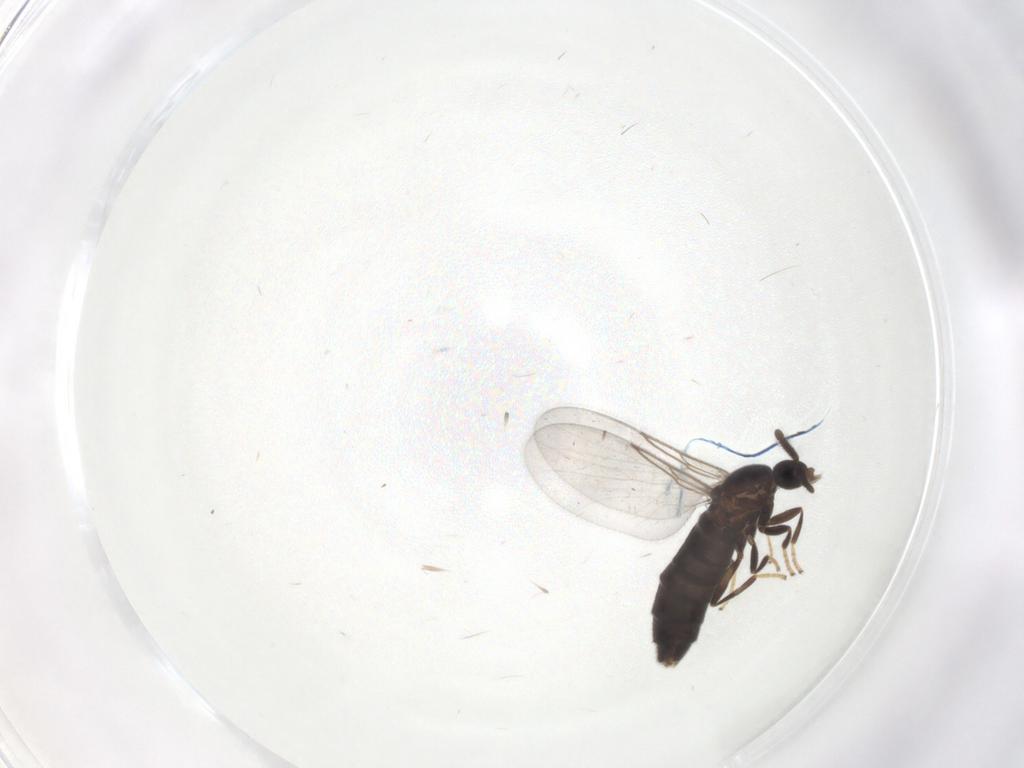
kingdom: Animalia
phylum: Arthropoda
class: Insecta
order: Diptera
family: Scatopsidae
